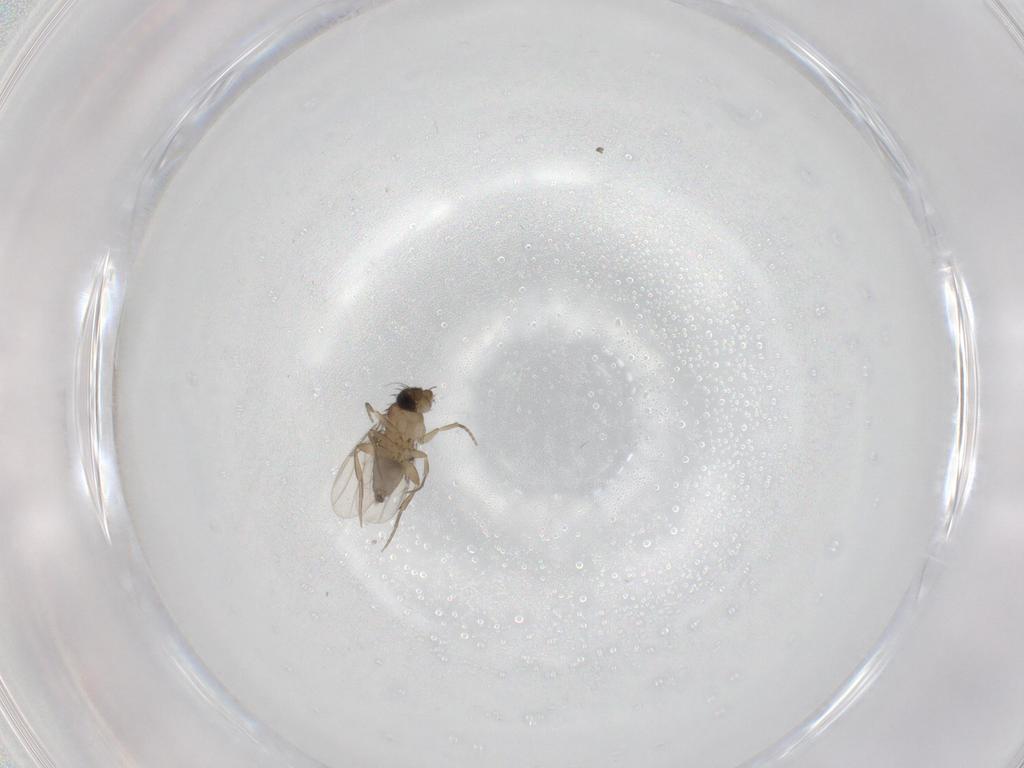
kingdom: Animalia
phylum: Arthropoda
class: Insecta
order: Diptera
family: Phoridae
